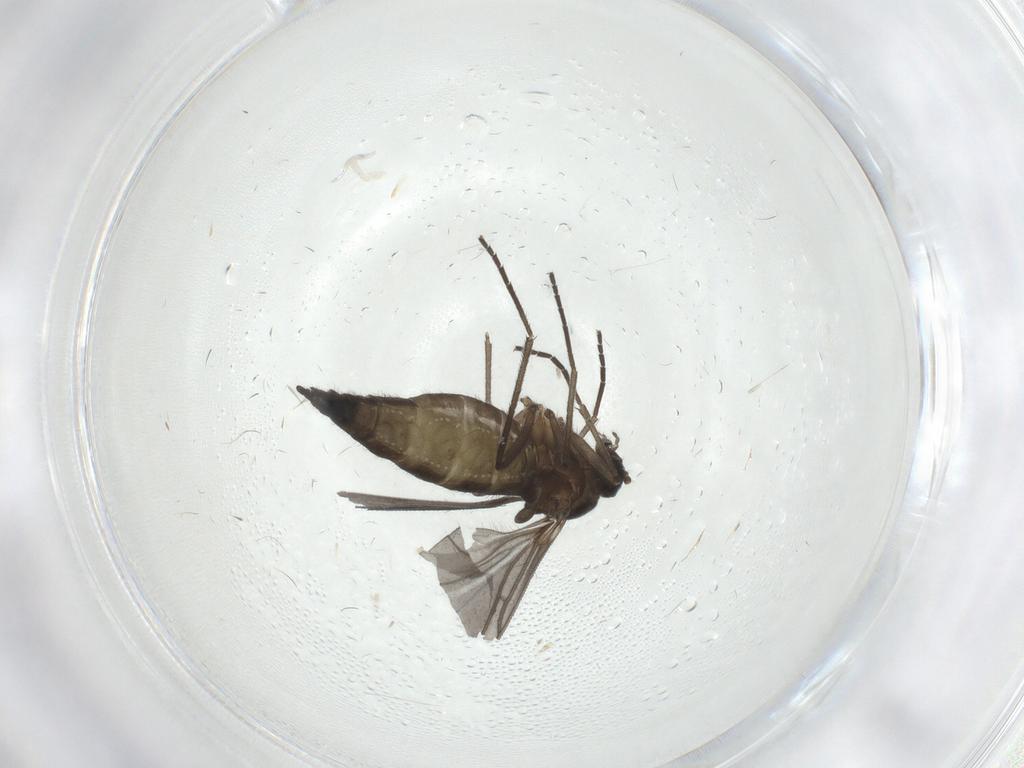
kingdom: Animalia
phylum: Arthropoda
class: Insecta
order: Diptera
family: Sciaridae
